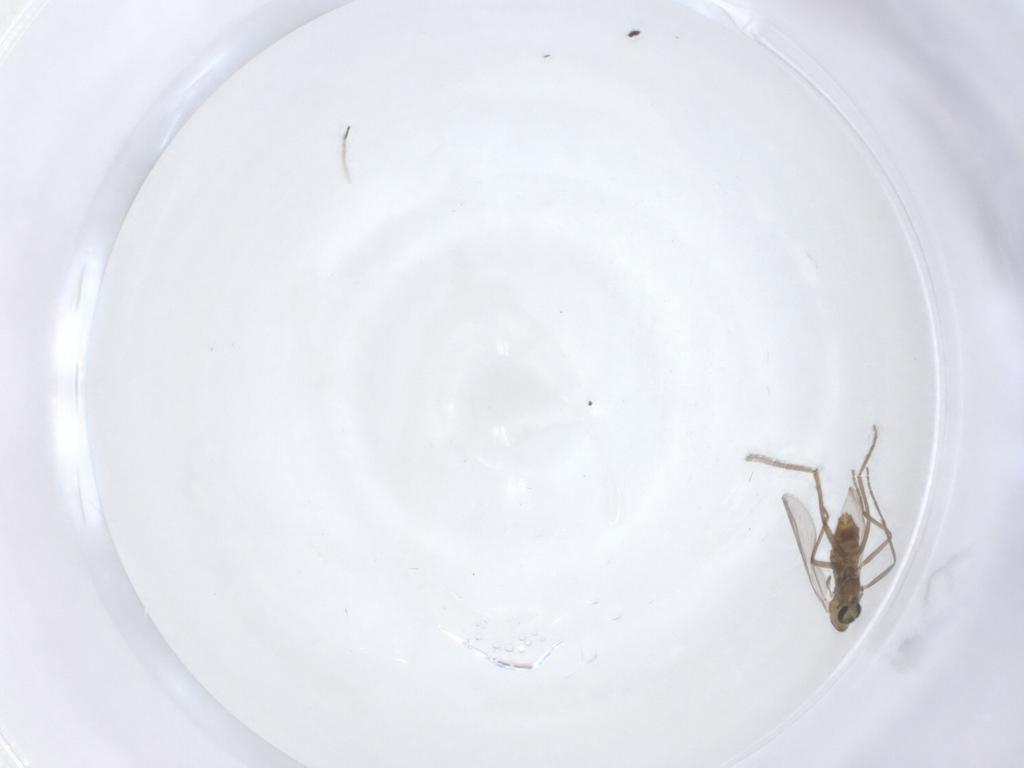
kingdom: Animalia
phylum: Arthropoda
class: Insecta
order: Diptera
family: Chironomidae
